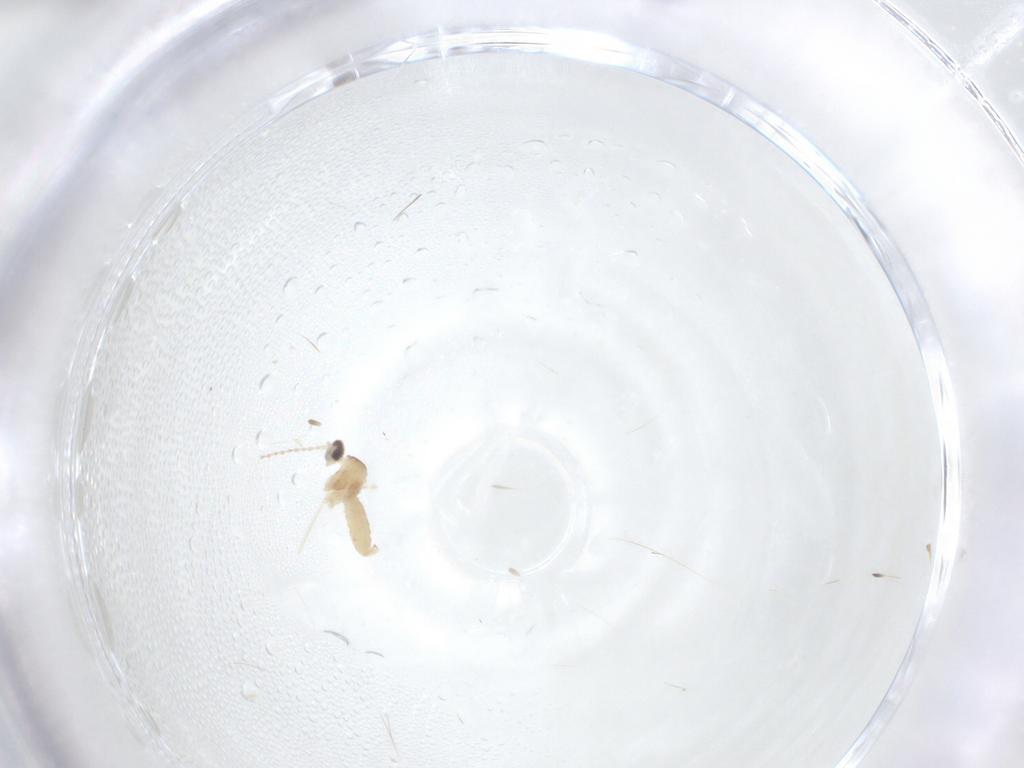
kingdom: Animalia
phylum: Arthropoda
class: Insecta
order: Diptera
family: Cecidomyiidae
